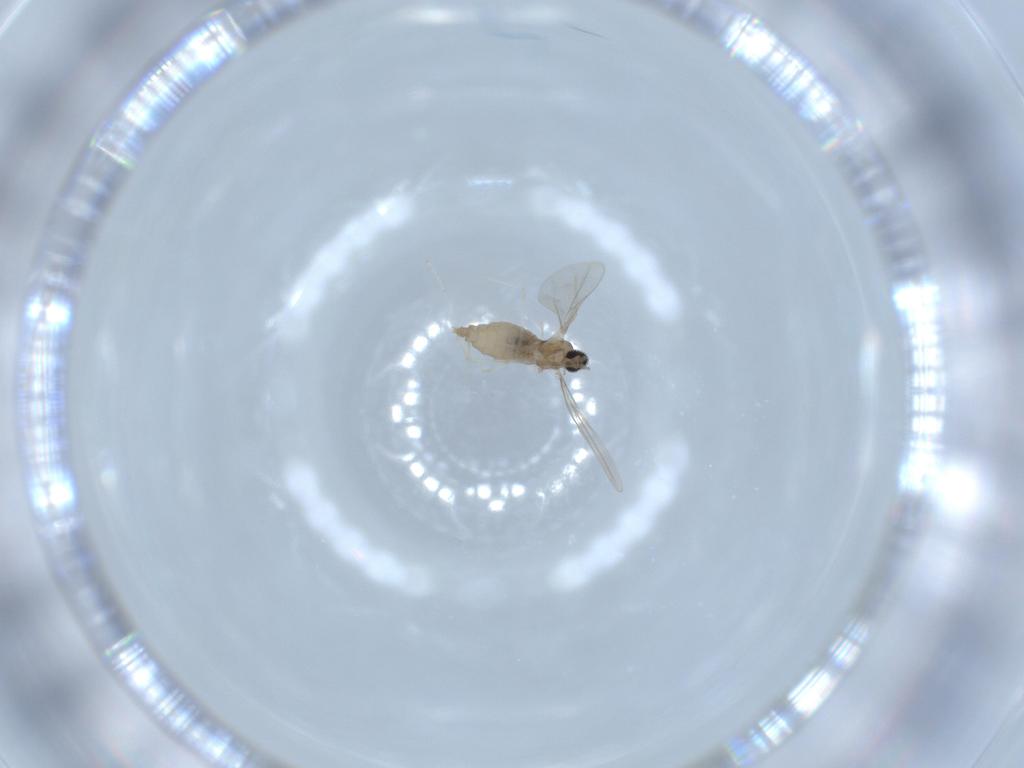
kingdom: Animalia
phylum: Arthropoda
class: Insecta
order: Diptera
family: Cecidomyiidae
